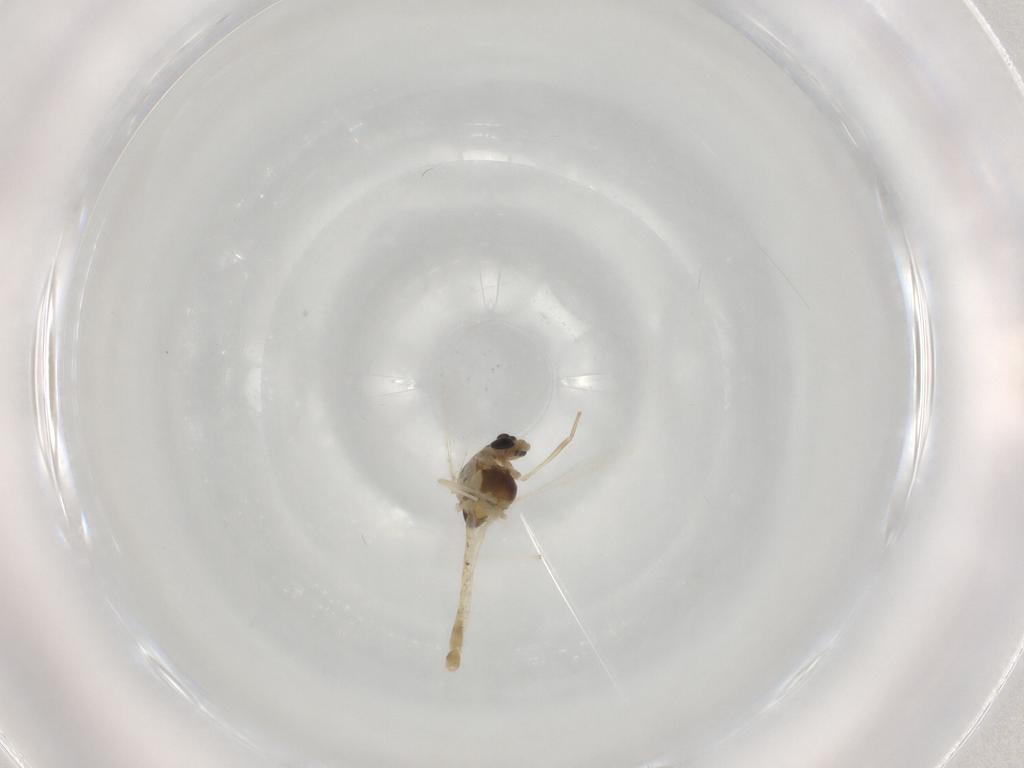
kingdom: Animalia
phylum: Arthropoda
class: Insecta
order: Diptera
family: Chironomidae
